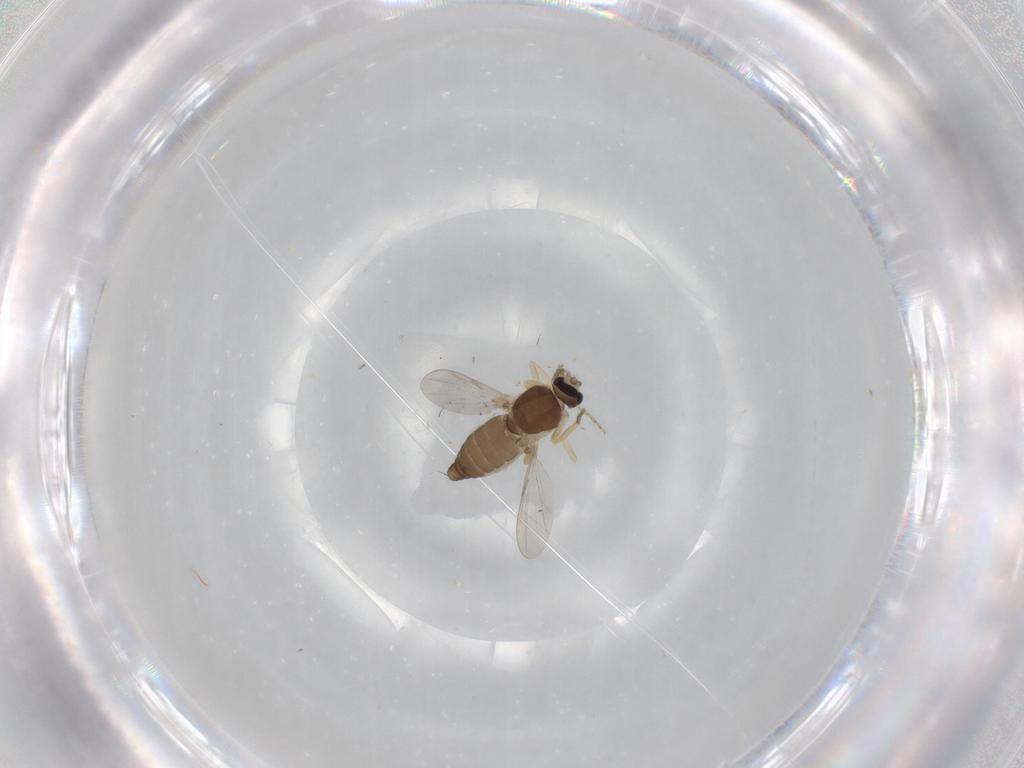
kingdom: Animalia
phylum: Arthropoda
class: Insecta
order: Diptera
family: Ceratopogonidae
